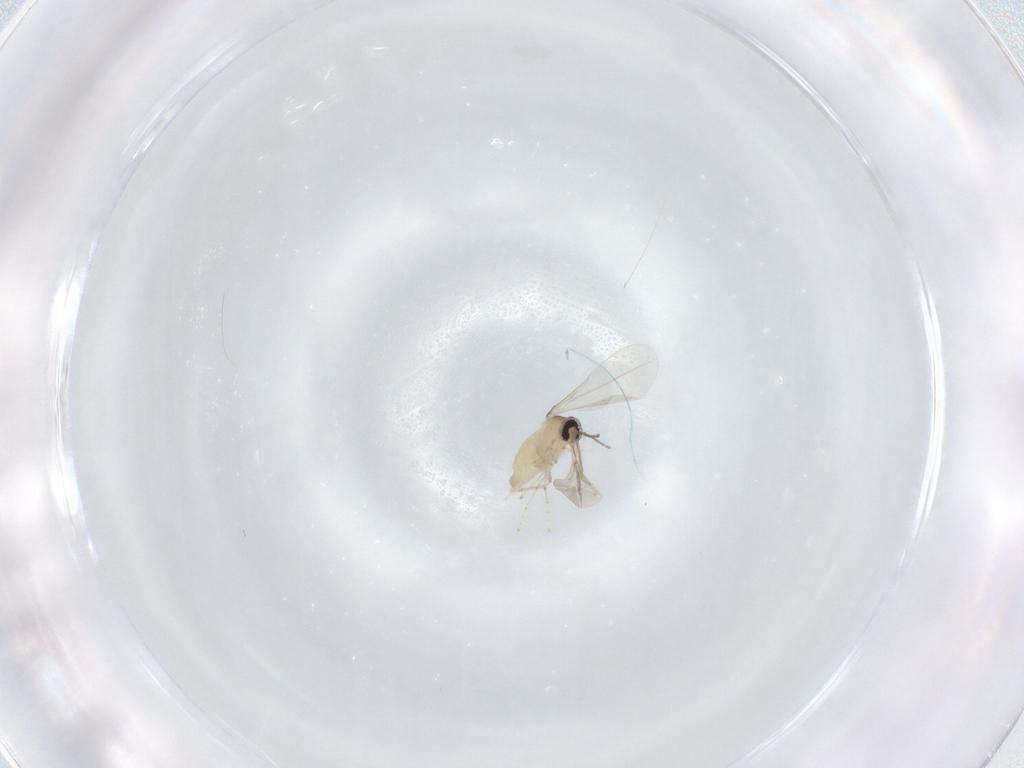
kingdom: Animalia
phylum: Arthropoda
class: Insecta
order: Diptera
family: Cecidomyiidae
